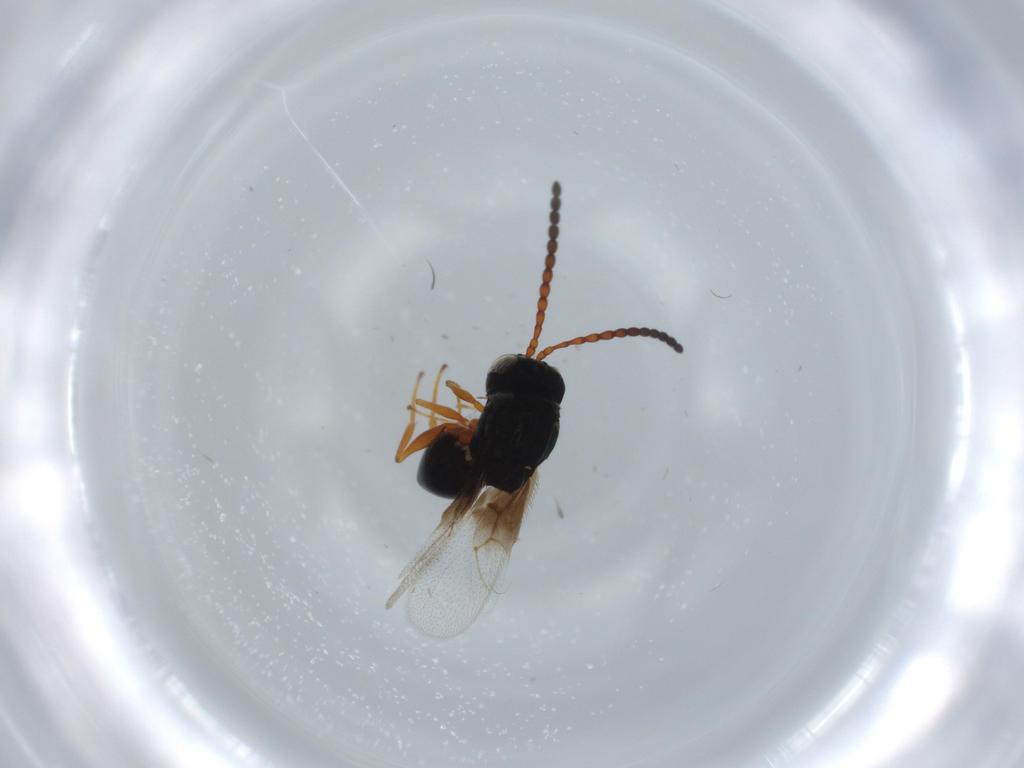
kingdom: Animalia
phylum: Arthropoda
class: Insecta
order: Hymenoptera
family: Figitidae
